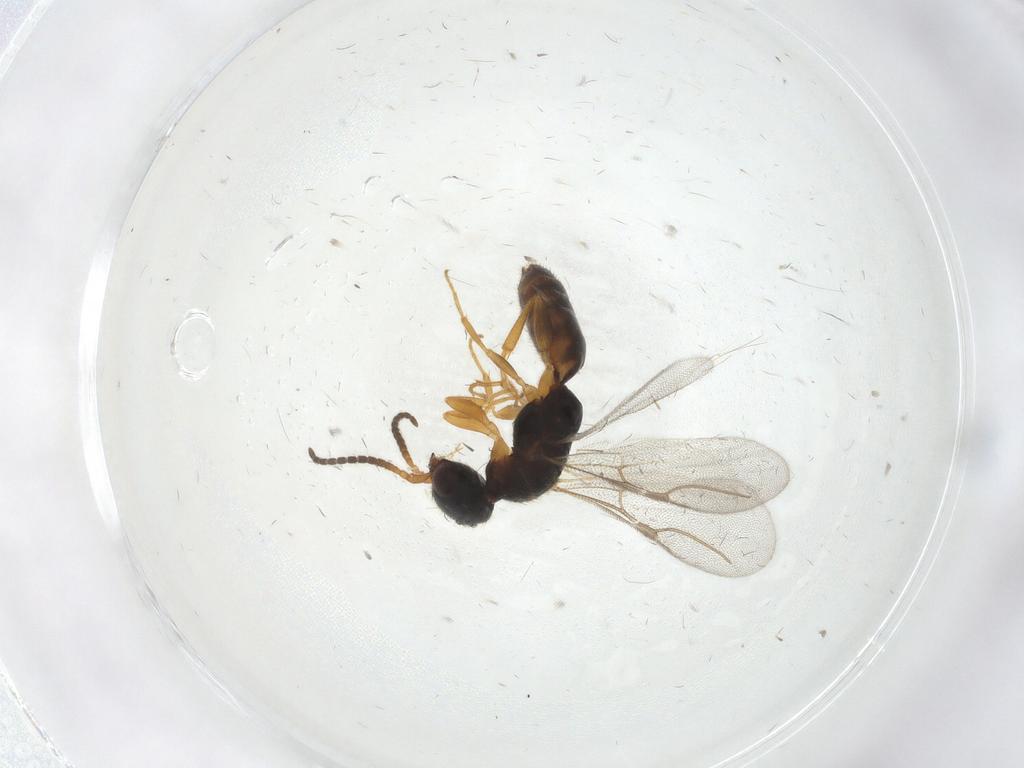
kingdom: Animalia
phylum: Arthropoda
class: Insecta
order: Hymenoptera
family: Bethylidae
